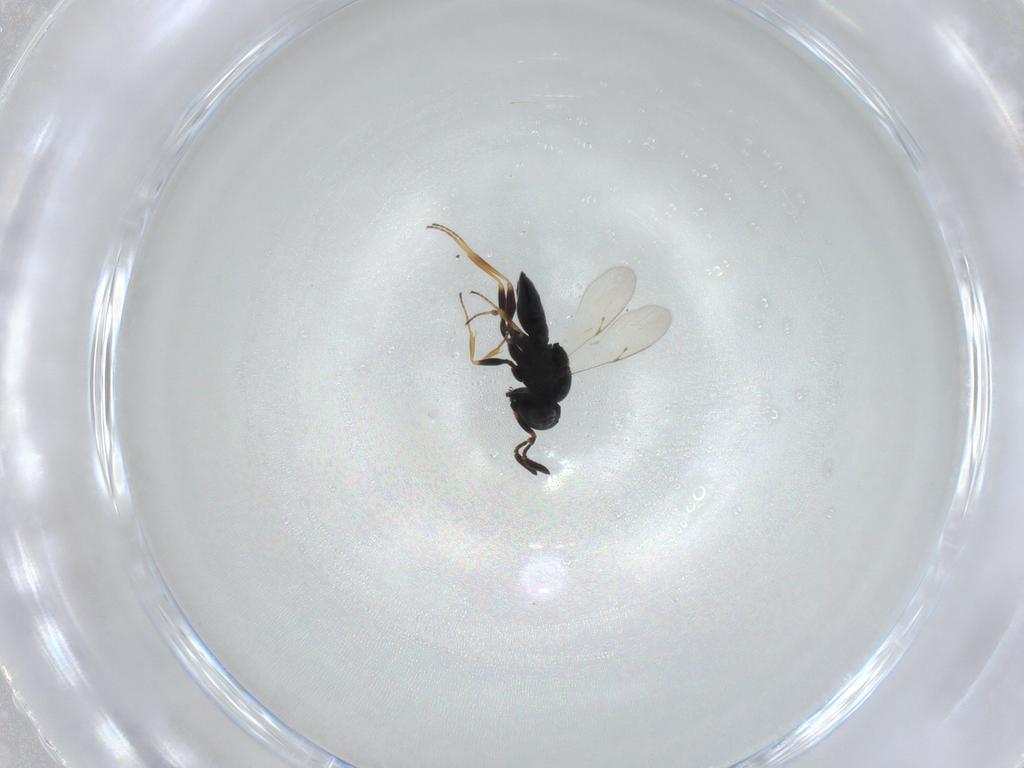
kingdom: Animalia
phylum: Arthropoda
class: Insecta
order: Hymenoptera
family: Scelionidae
